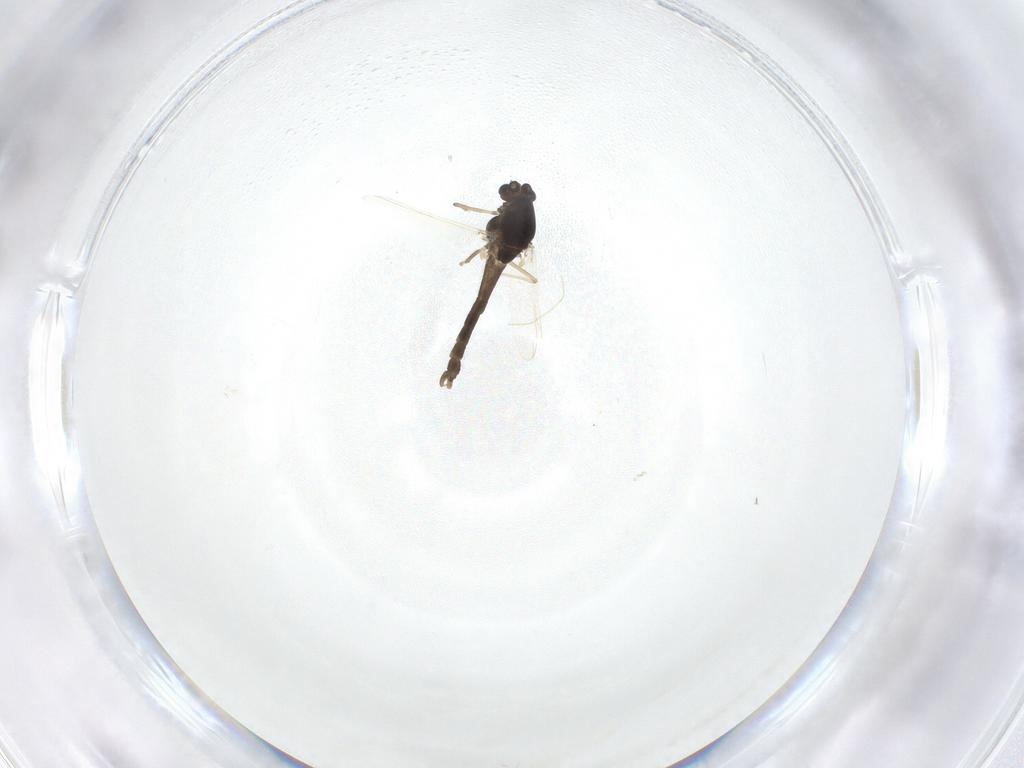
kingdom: Animalia
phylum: Arthropoda
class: Insecta
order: Diptera
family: Chironomidae
